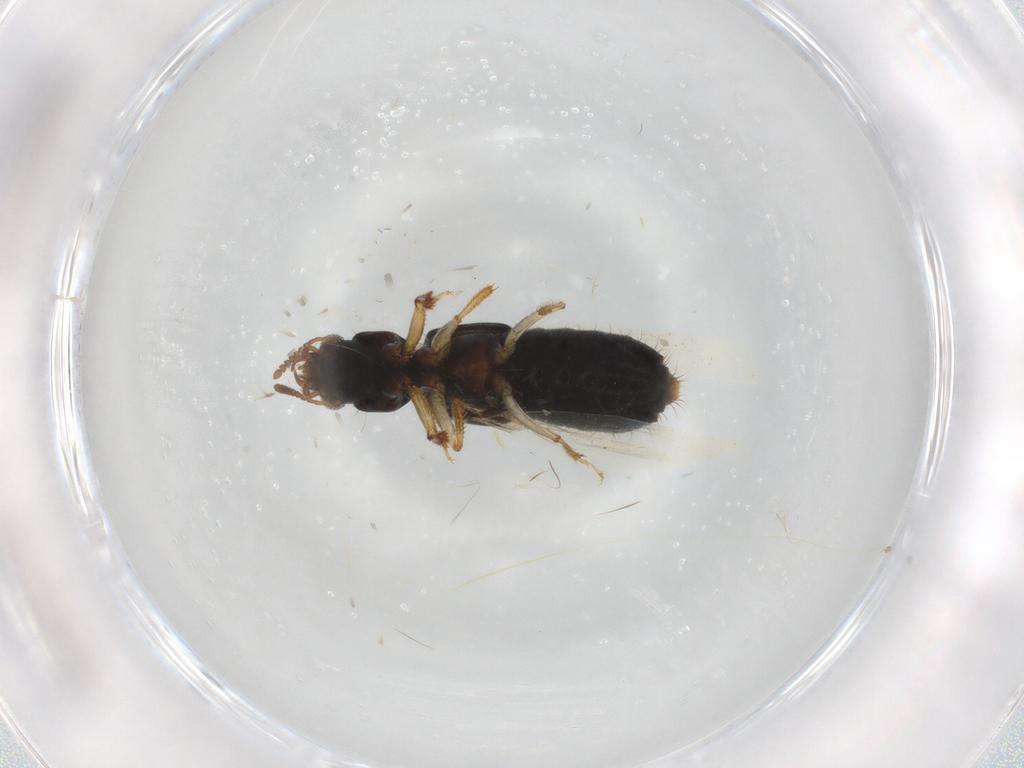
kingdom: Animalia
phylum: Arthropoda
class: Insecta
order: Coleoptera
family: Staphylinidae
